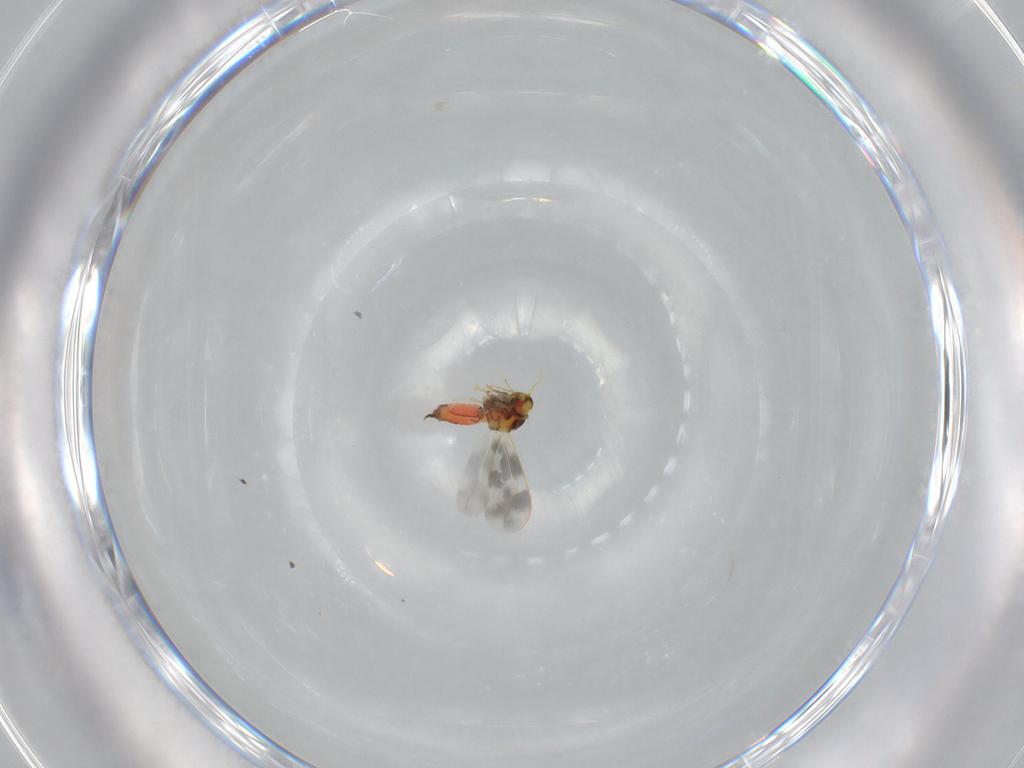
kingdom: Animalia
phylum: Arthropoda
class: Insecta
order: Hemiptera
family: Aleyrodidae
